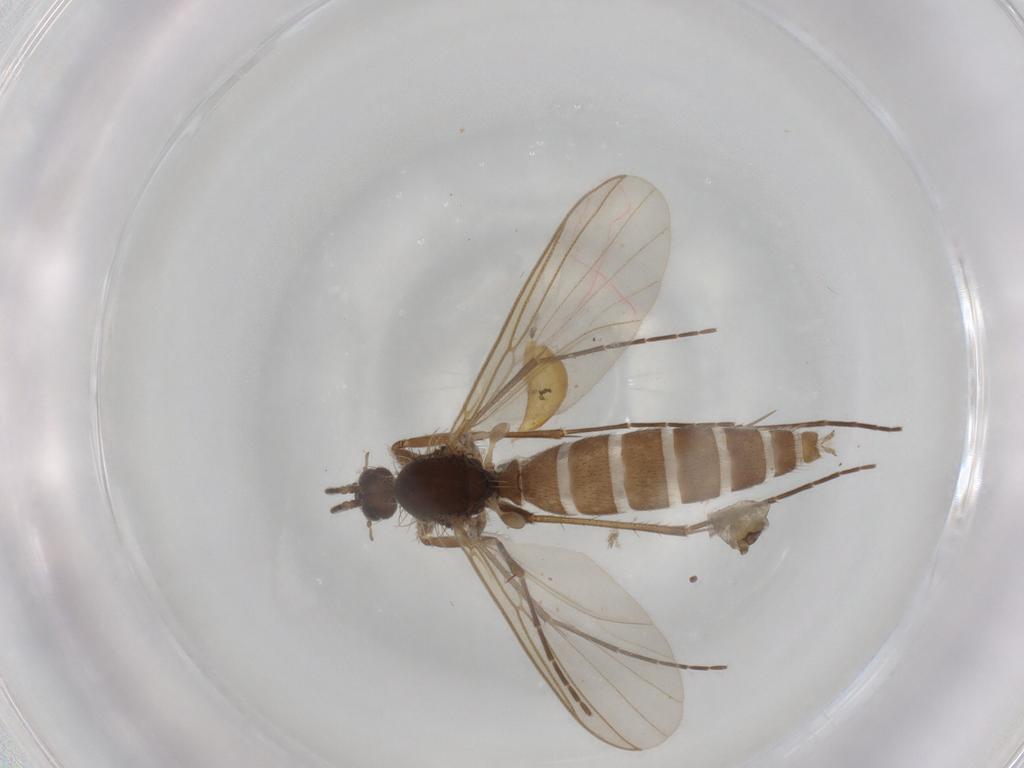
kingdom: Animalia
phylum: Arthropoda
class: Insecta
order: Diptera
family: Mycetophilidae
